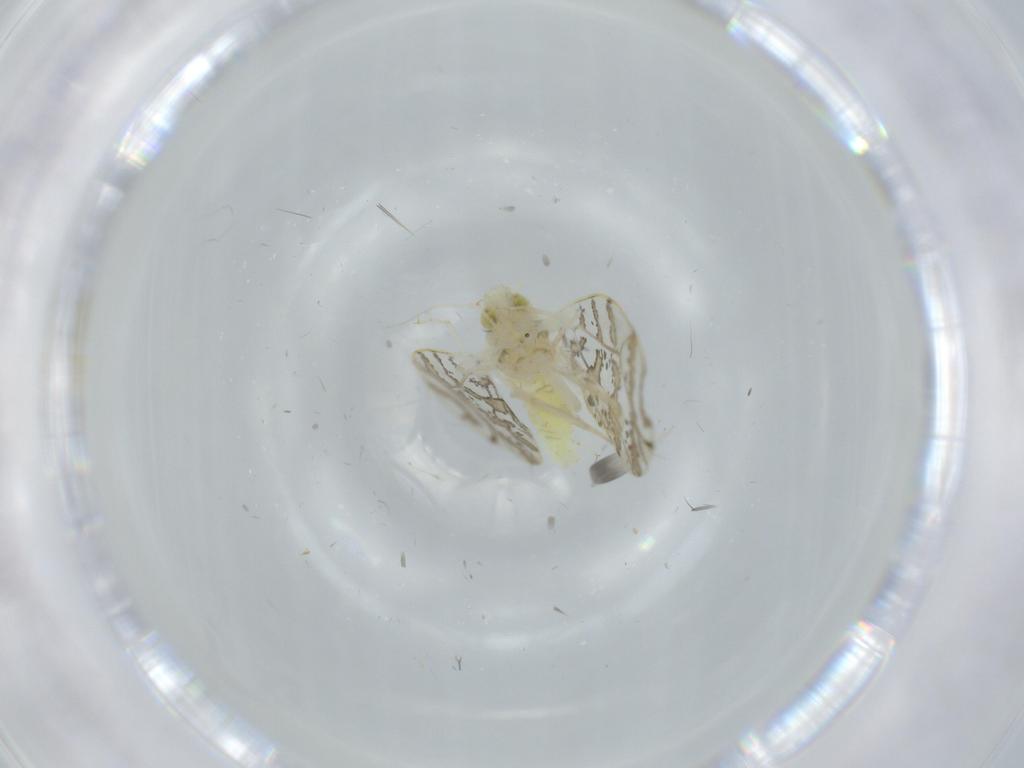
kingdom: Animalia
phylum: Arthropoda
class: Insecta
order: Hemiptera
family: Aleyrodidae
